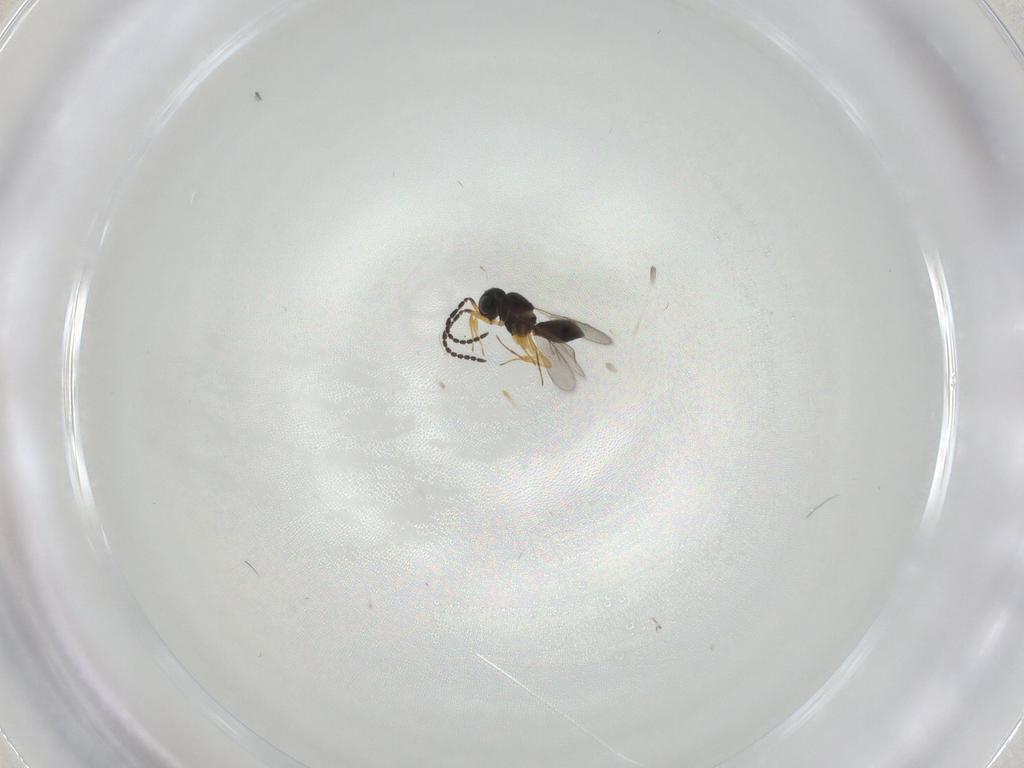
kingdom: Animalia
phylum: Arthropoda
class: Insecta
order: Hymenoptera
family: Scelionidae
